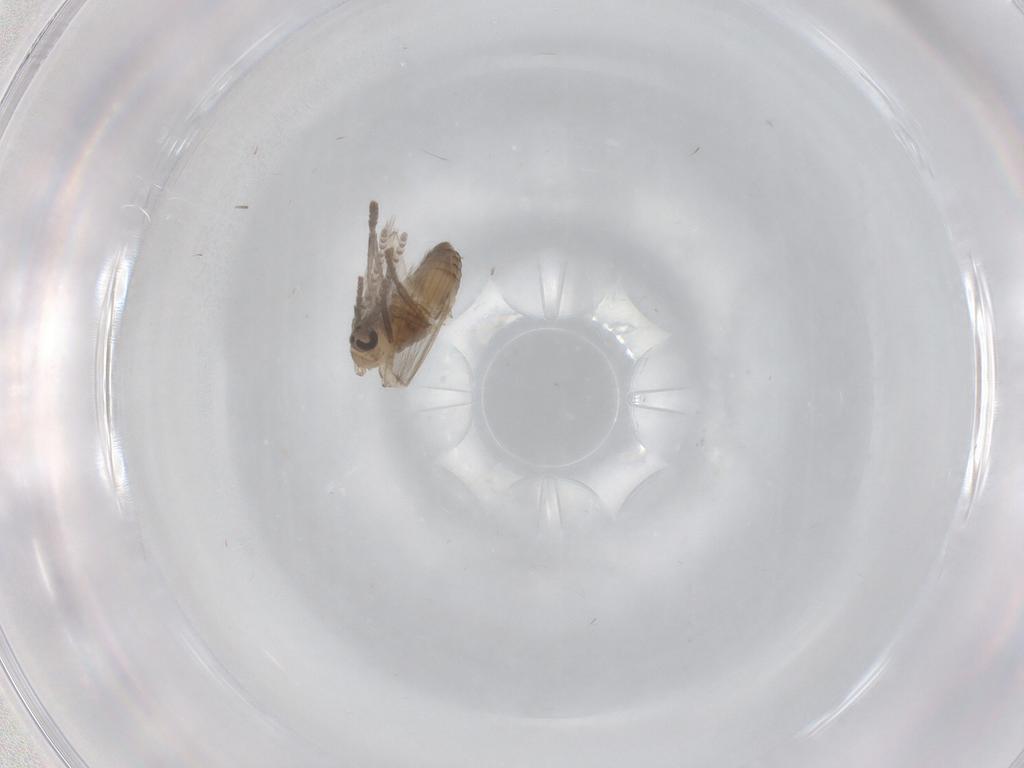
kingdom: Animalia
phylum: Arthropoda
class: Insecta
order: Diptera
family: Psychodidae
